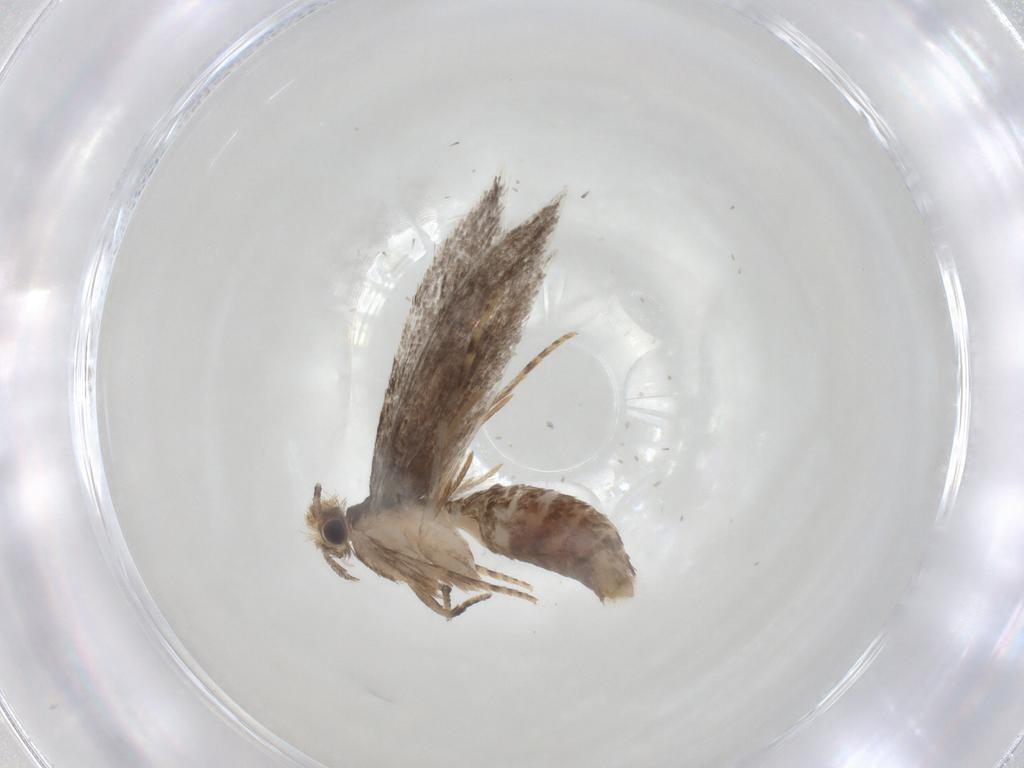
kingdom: Animalia
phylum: Arthropoda
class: Insecta
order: Lepidoptera
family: Tineidae
